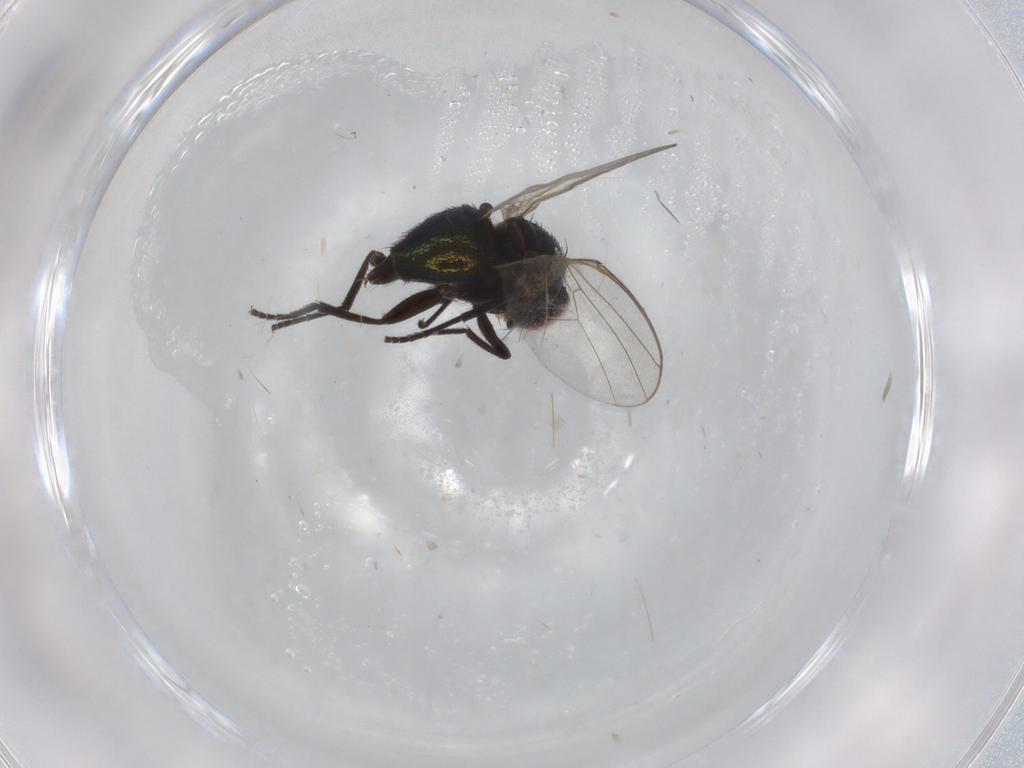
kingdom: Animalia
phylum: Arthropoda
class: Insecta
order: Diptera
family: Agromyzidae
